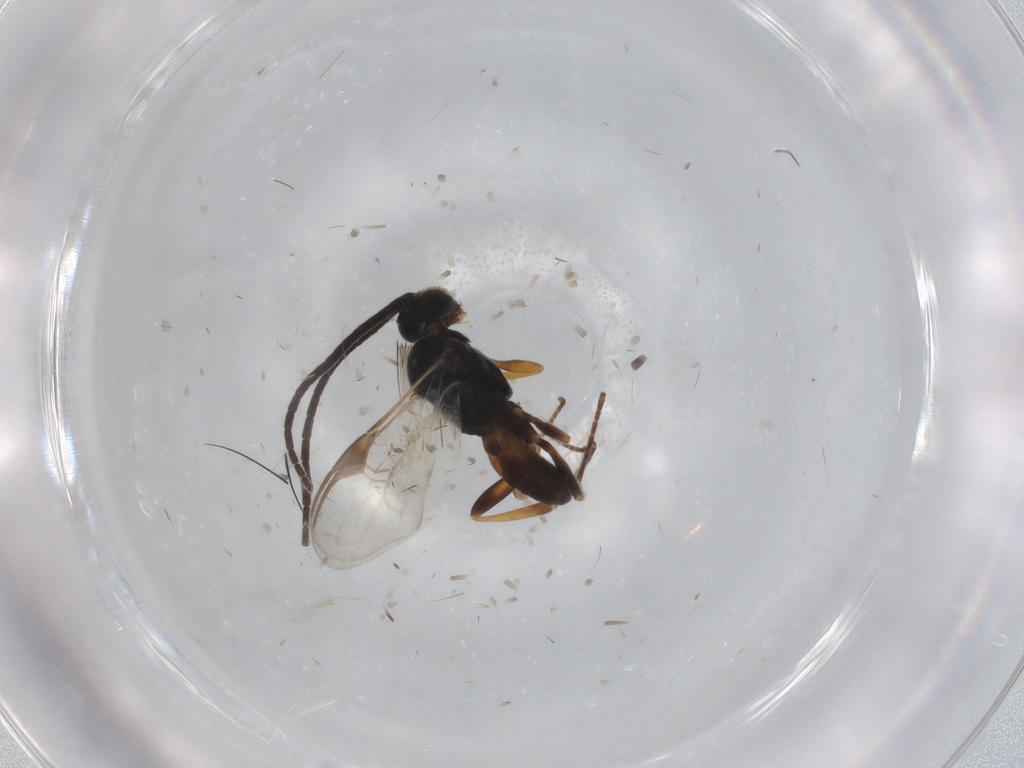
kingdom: Animalia
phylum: Arthropoda
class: Insecta
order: Hymenoptera
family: Braconidae
